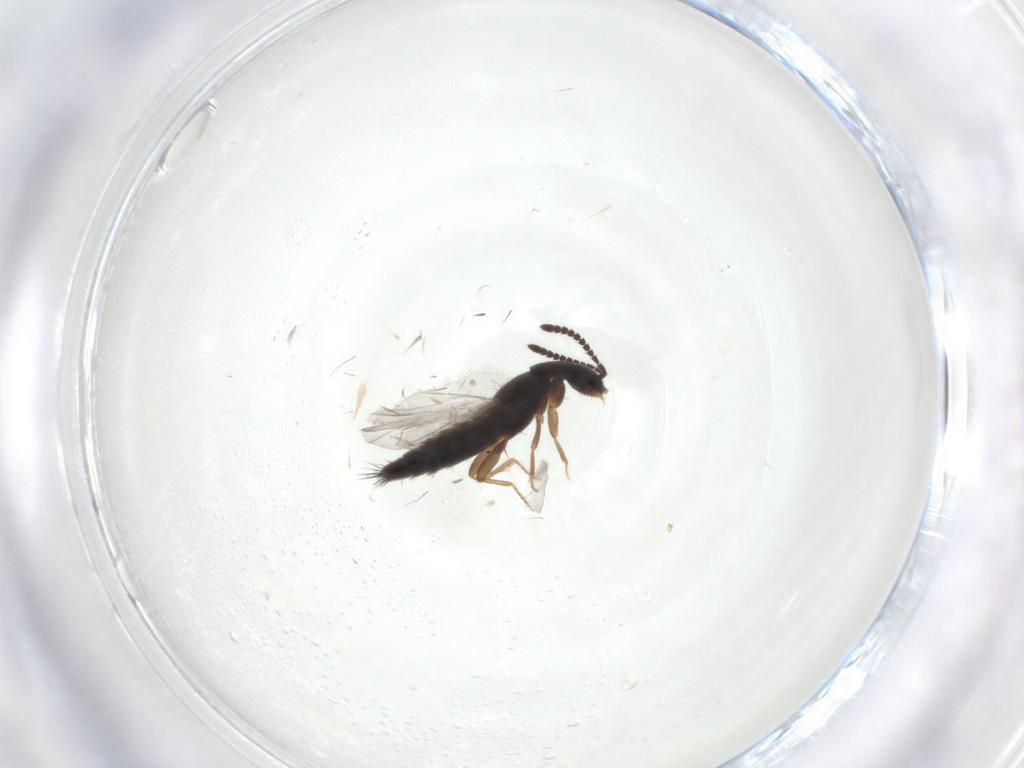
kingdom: Animalia
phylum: Arthropoda
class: Insecta
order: Coleoptera
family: Staphylinidae
